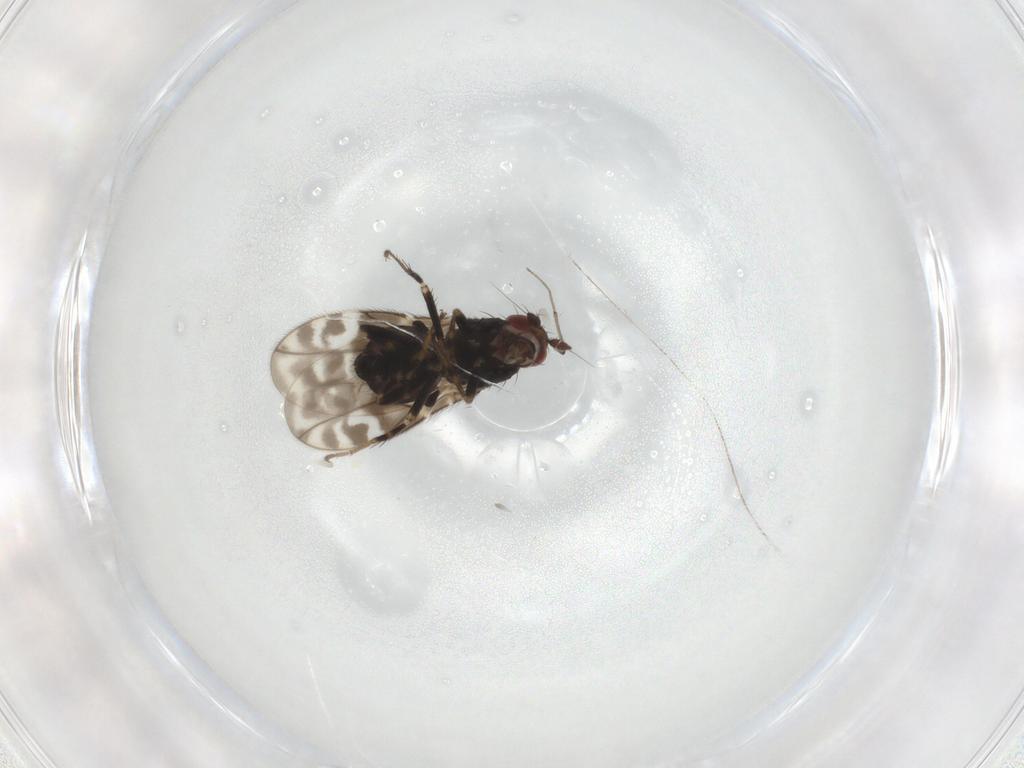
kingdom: Animalia
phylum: Arthropoda
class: Insecta
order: Diptera
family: Sphaeroceridae
